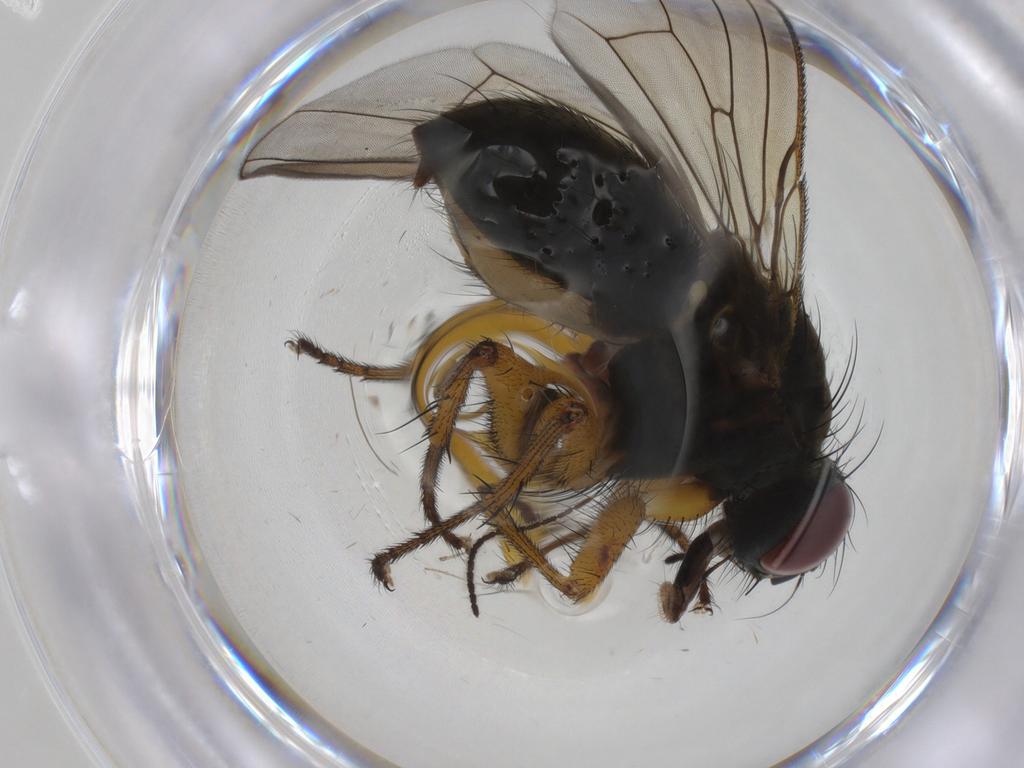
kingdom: Animalia
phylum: Arthropoda
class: Insecta
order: Diptera
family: Muscidae
